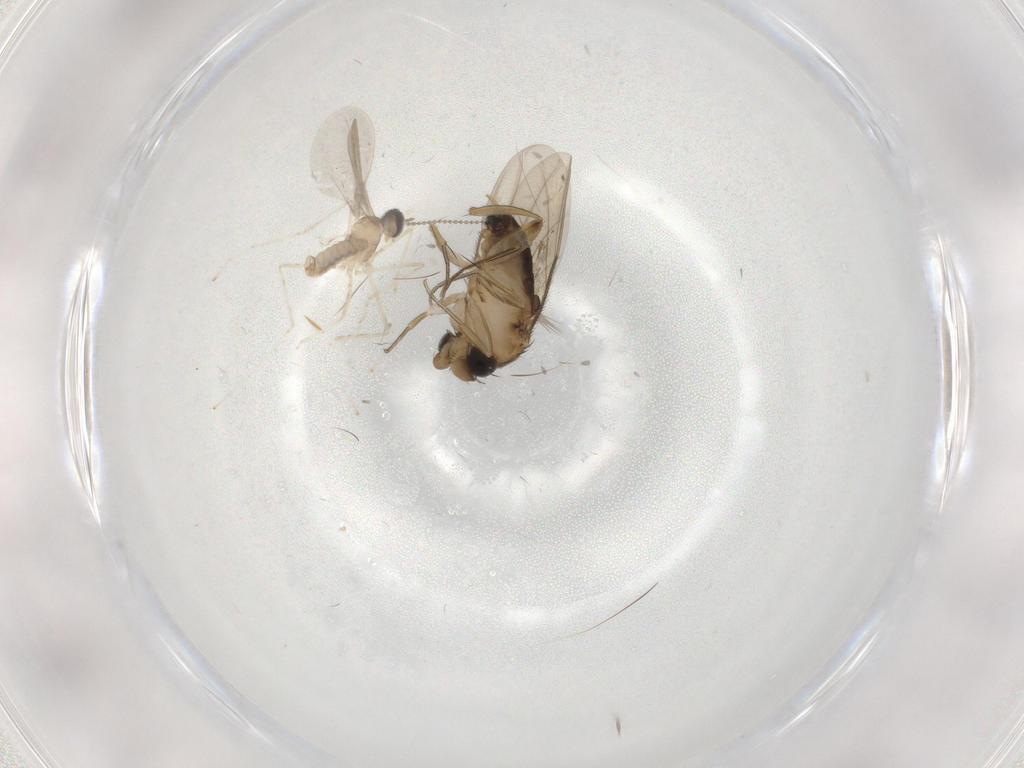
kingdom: Animalia
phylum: Arthropoda
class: Insecta
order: Diptera
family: Phoridae
